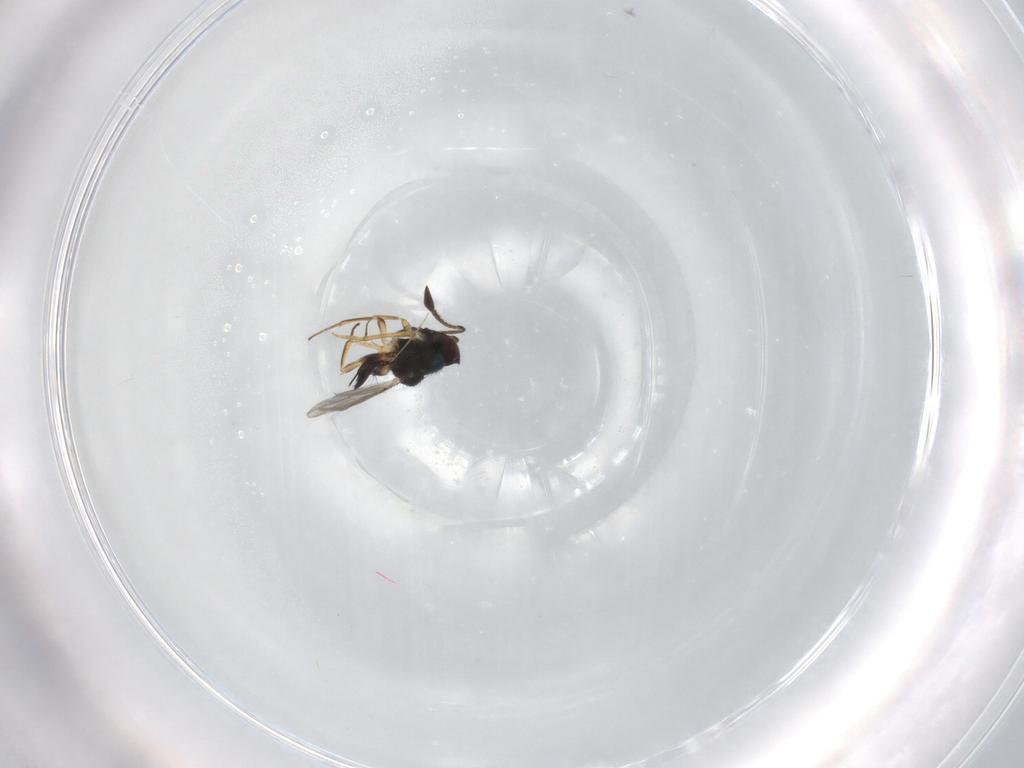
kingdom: Animalia
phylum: Arthropoda
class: Insecta
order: Hymenoptera
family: Encyrtidae
